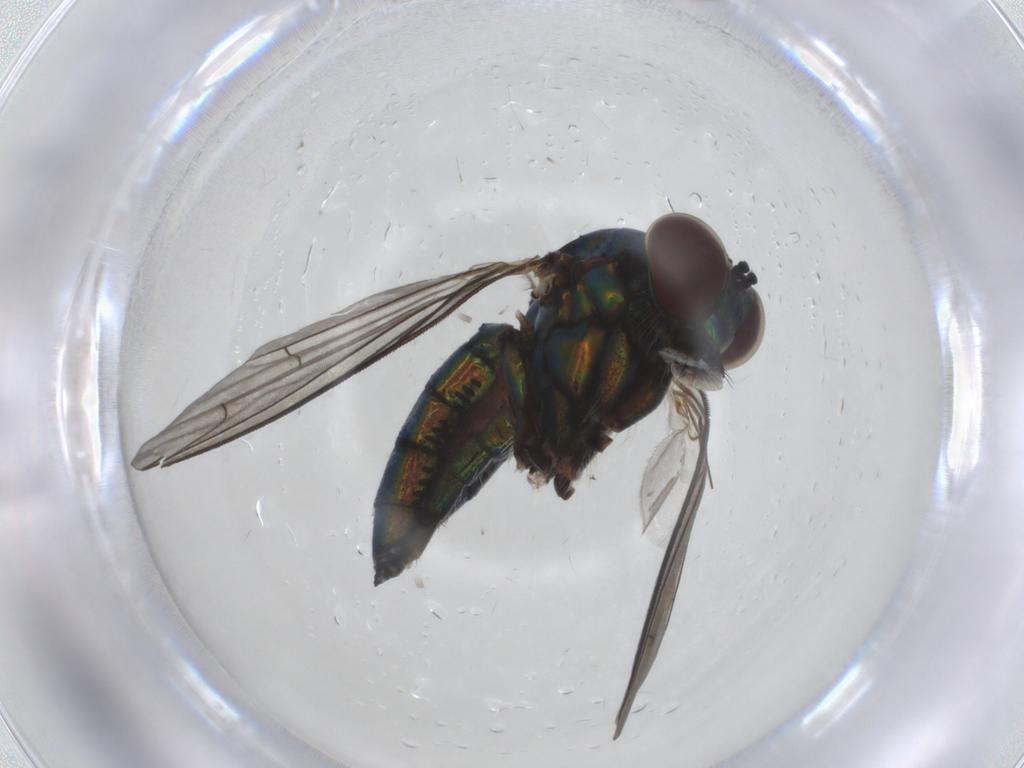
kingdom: Animalia
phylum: Arthropoda
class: Insecta
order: Diptera
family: Dolichopodidae
